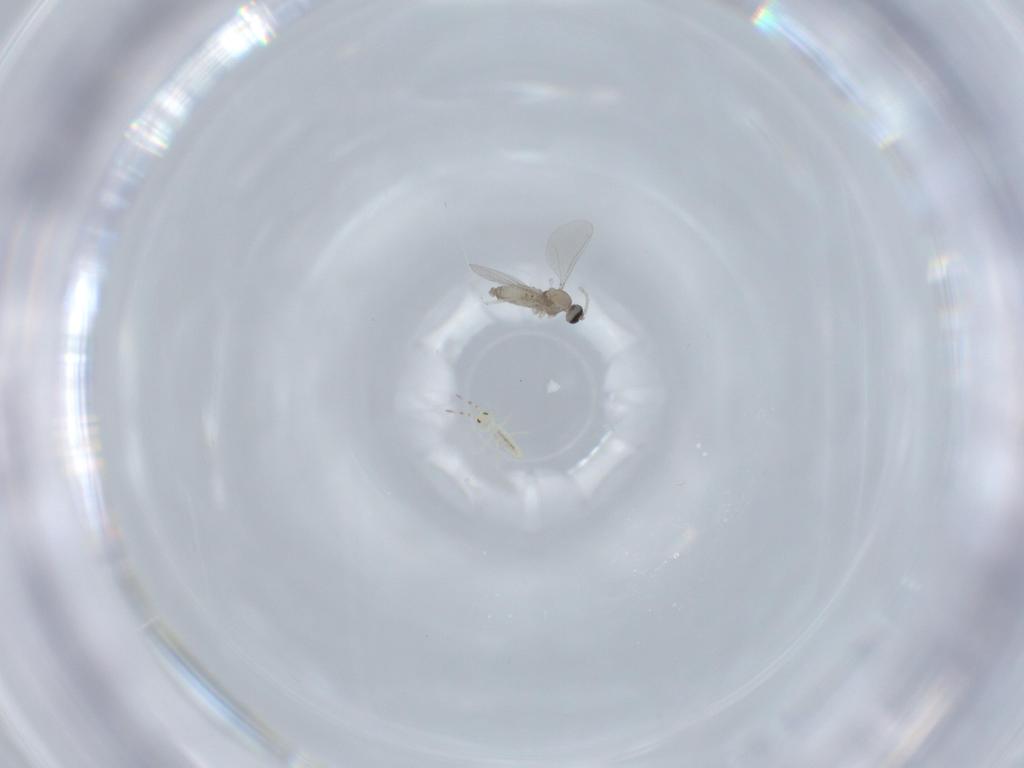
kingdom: Animalia
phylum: Arthropoda
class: Collembola
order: Entomobryomorpha
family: Entomobryidae
